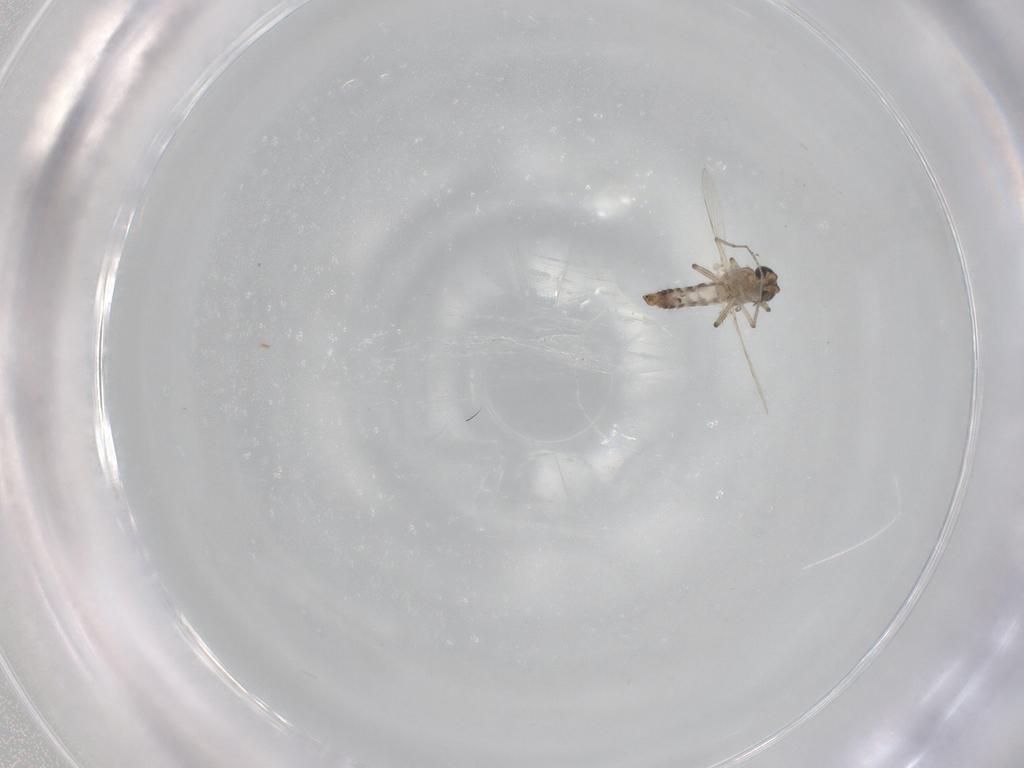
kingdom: Animalia
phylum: Arthropoda
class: Insecta
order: Diptera
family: Ceratopogonidae
